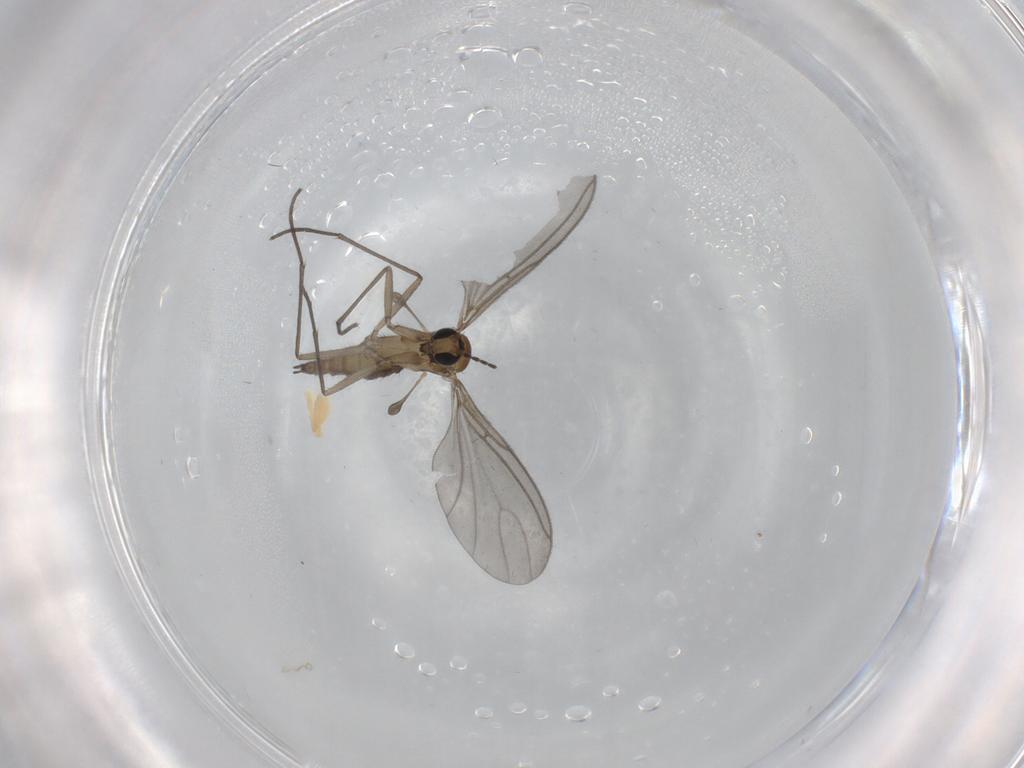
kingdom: Animalia
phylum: Arthropoda
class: Insecta
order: Diptera
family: Sciaridae
